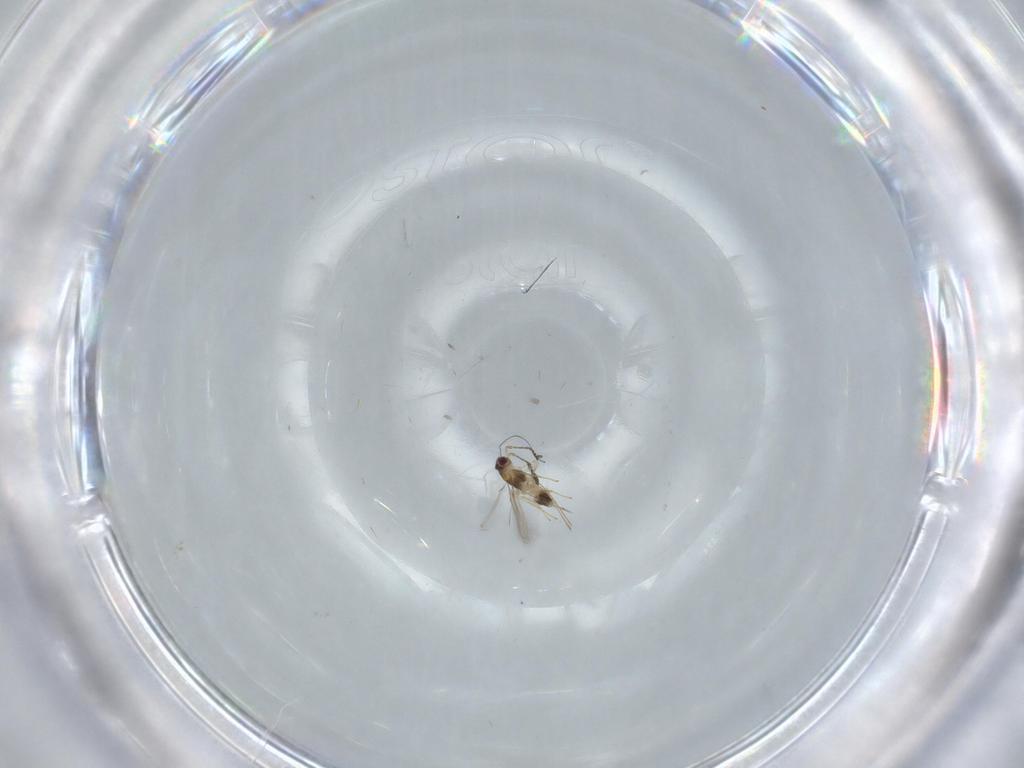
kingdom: Animalia
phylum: Arthropoda
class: Insecta
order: Hymenoptera
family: Mymaridae
